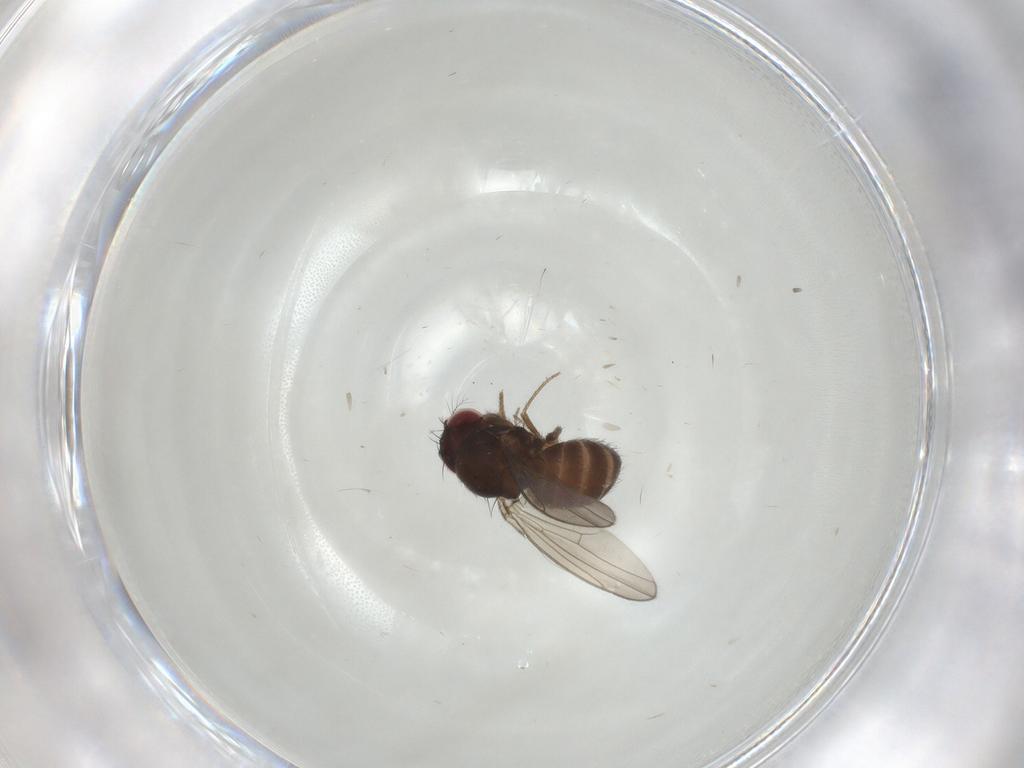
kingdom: Animalia
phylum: Arthropoda
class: Insecta
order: Diptera
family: Drosophilidae
